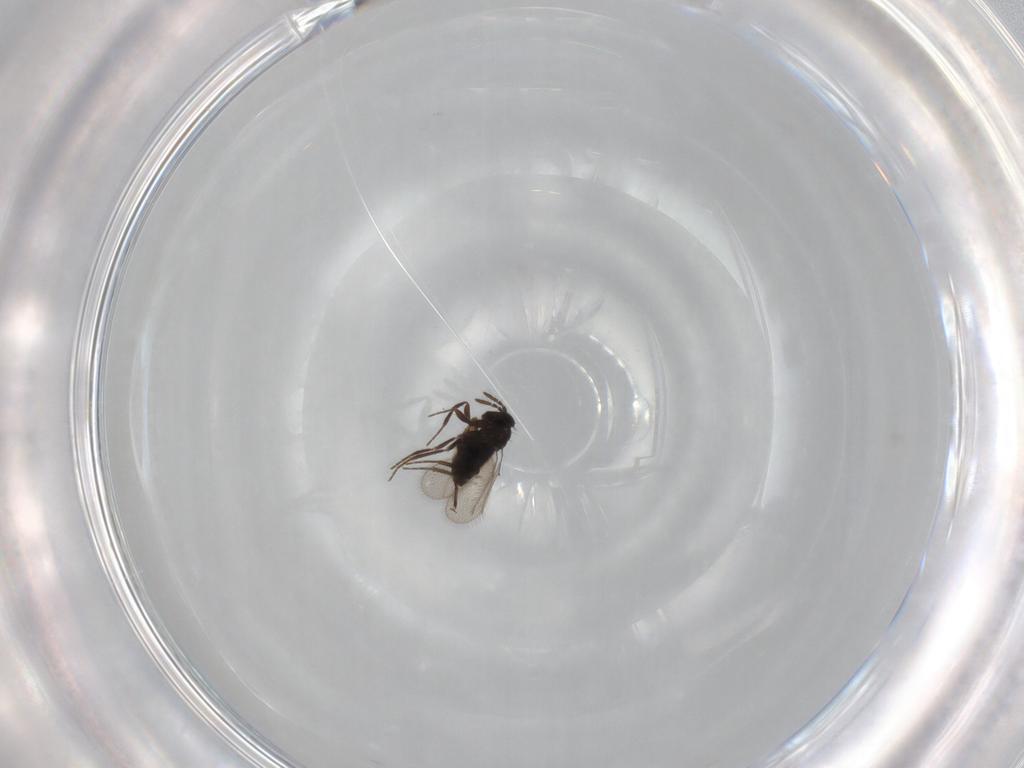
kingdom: Animalia
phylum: Arthropoda
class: Insecta
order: Hymenoptera
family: Trichogrammatidae
